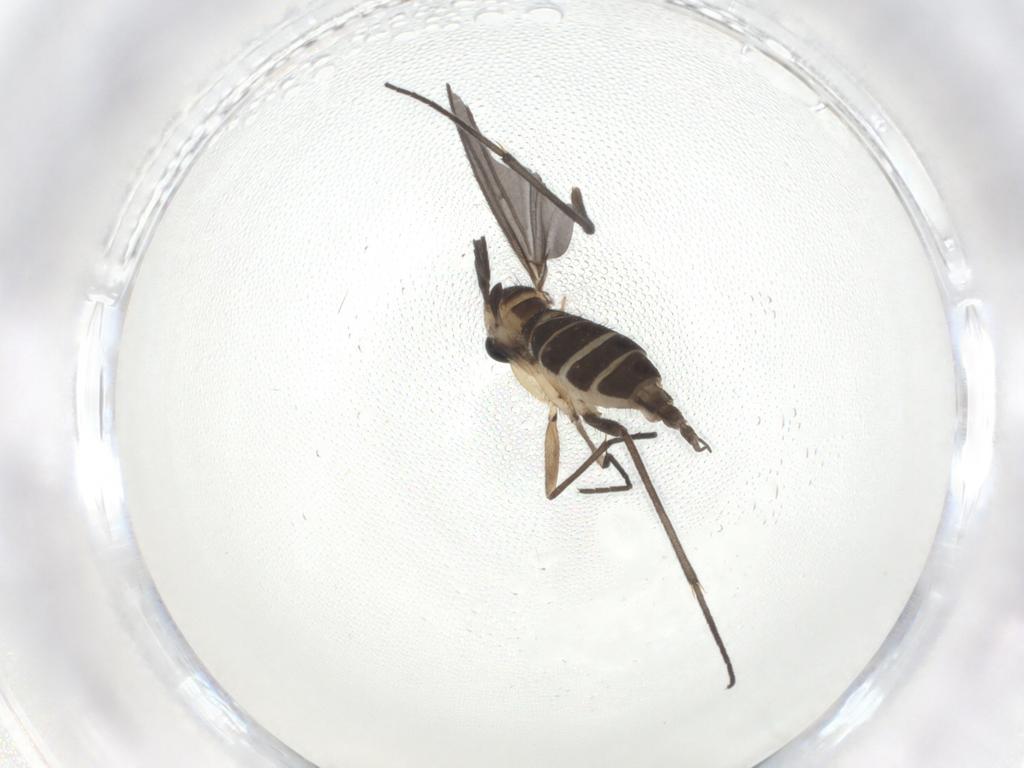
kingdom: Animalia
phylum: Arthropoda
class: Insecta
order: Diptera
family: Sciaridae
